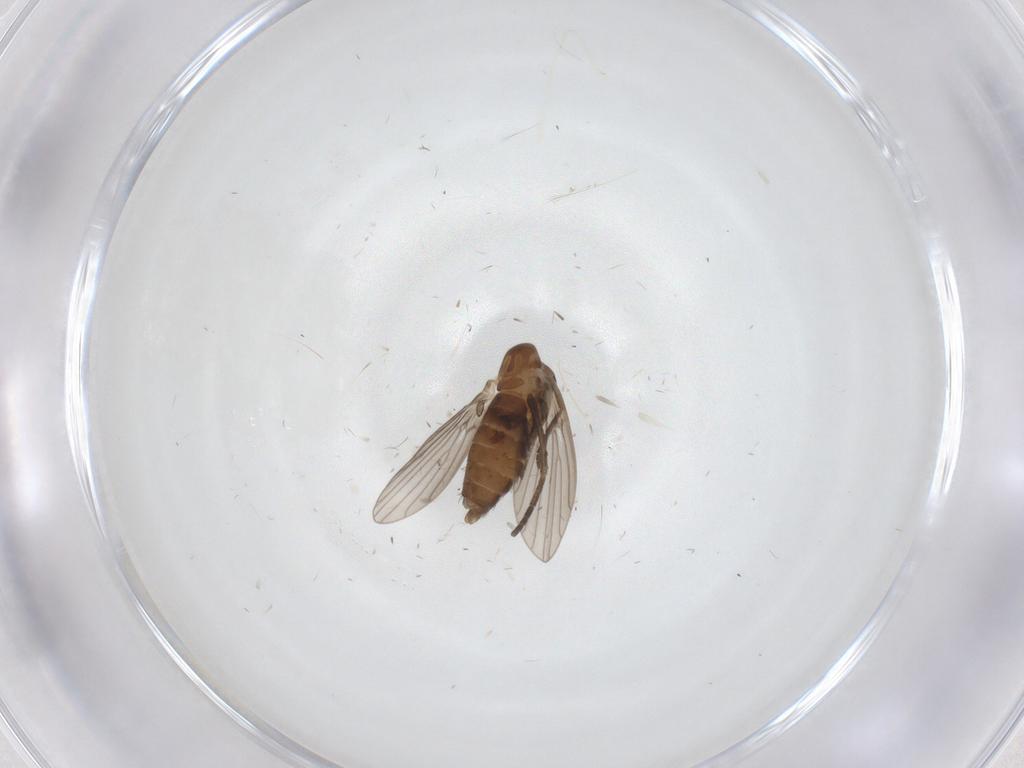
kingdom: Animalia
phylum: Arthropoda
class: Insecta
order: Diptera
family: Psychodidae
